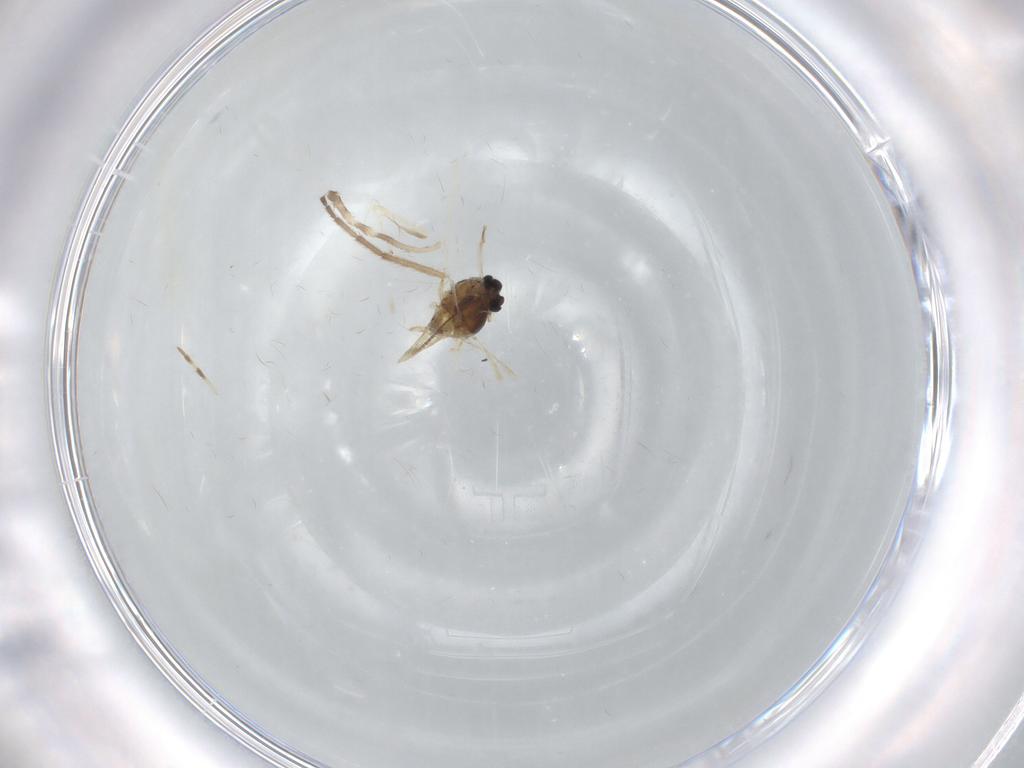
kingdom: Animalia
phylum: Arthropoda
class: Insecta
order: Diptera
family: Chironomidae
